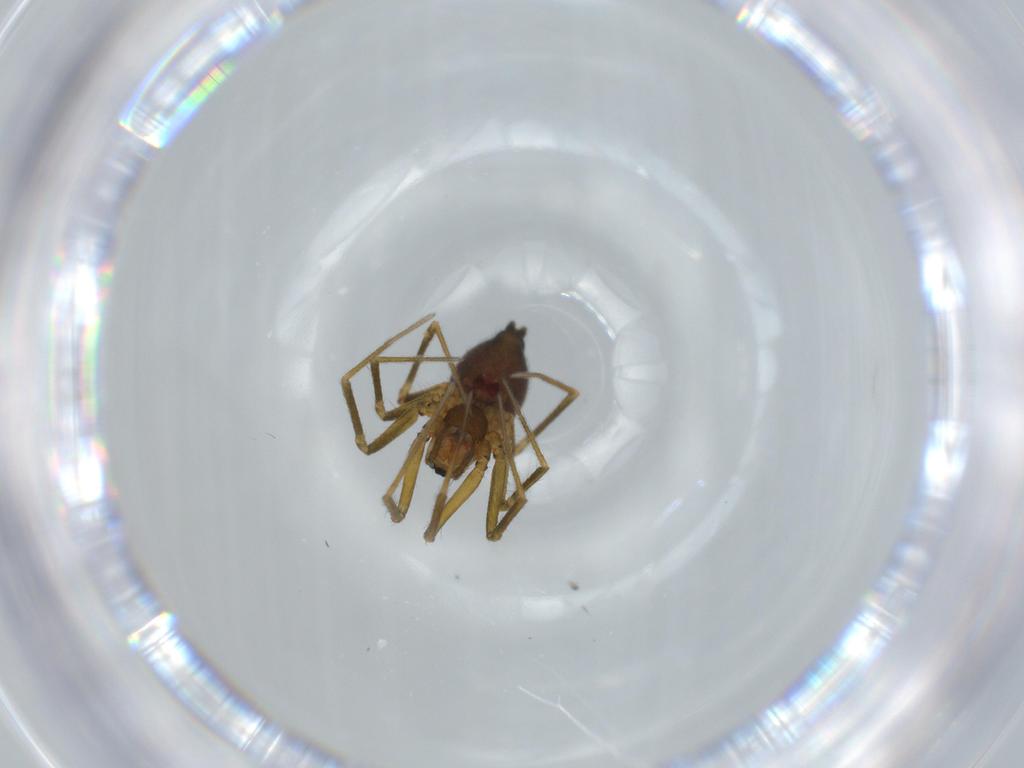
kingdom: Animalia
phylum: Arthropoda
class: Arachnida
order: Araneae
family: Linyphiidae
